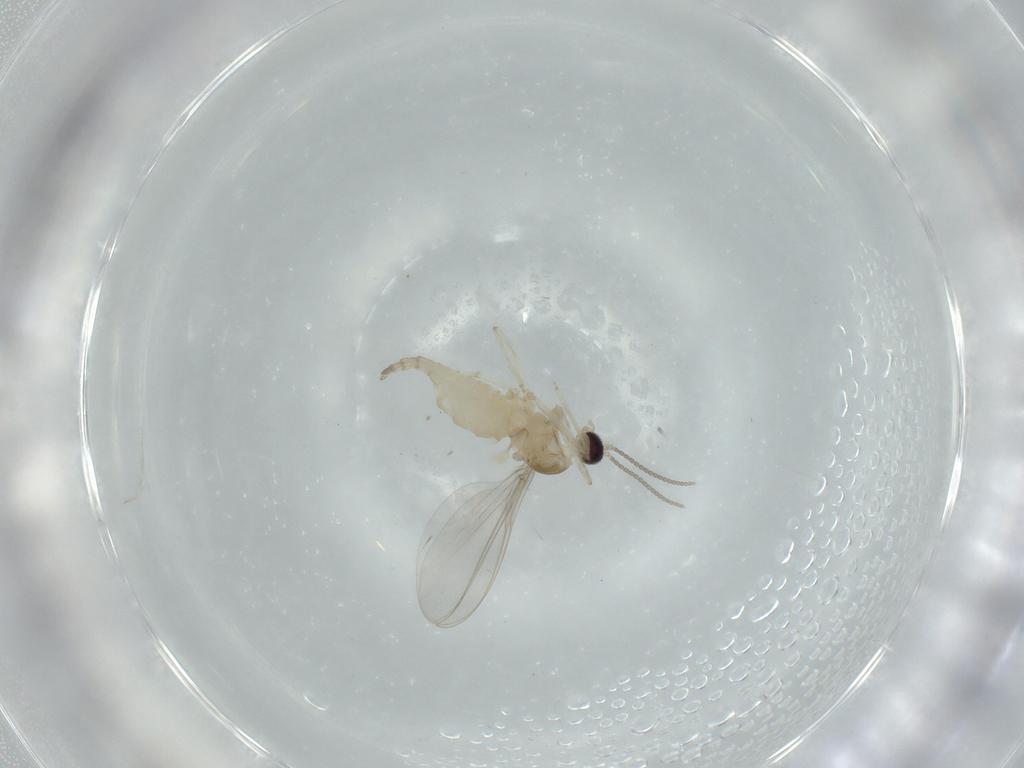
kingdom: Animalia
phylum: Arthropoda
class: Insecta
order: Diptera
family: Cecidomyiidae
